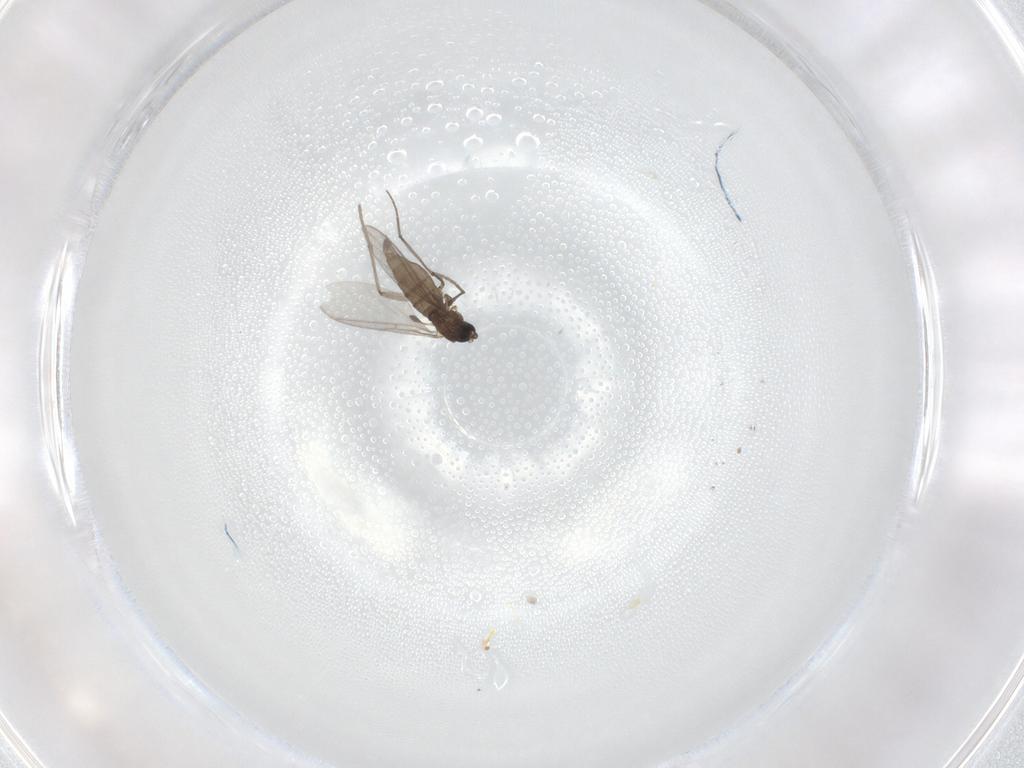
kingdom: Animalia
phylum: Arthropoda
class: Insecta
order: Diptera
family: Sciaridae
